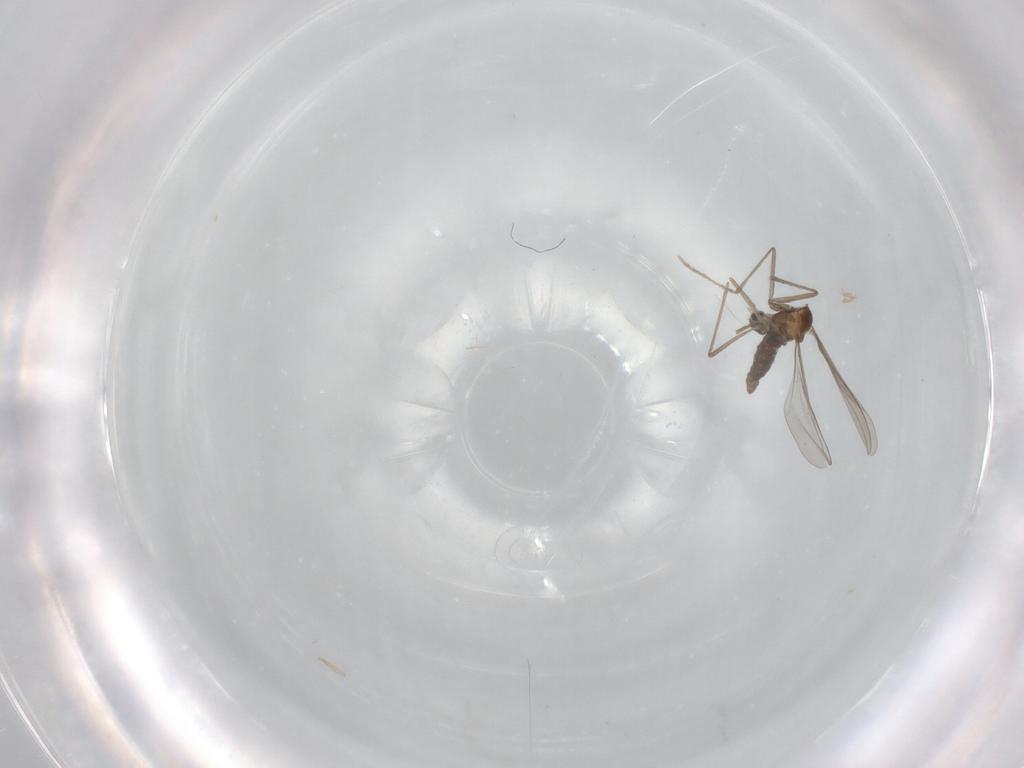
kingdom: Animalia
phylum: Arthropoda
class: Insecta
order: Diptera
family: Cecidomyiidae
